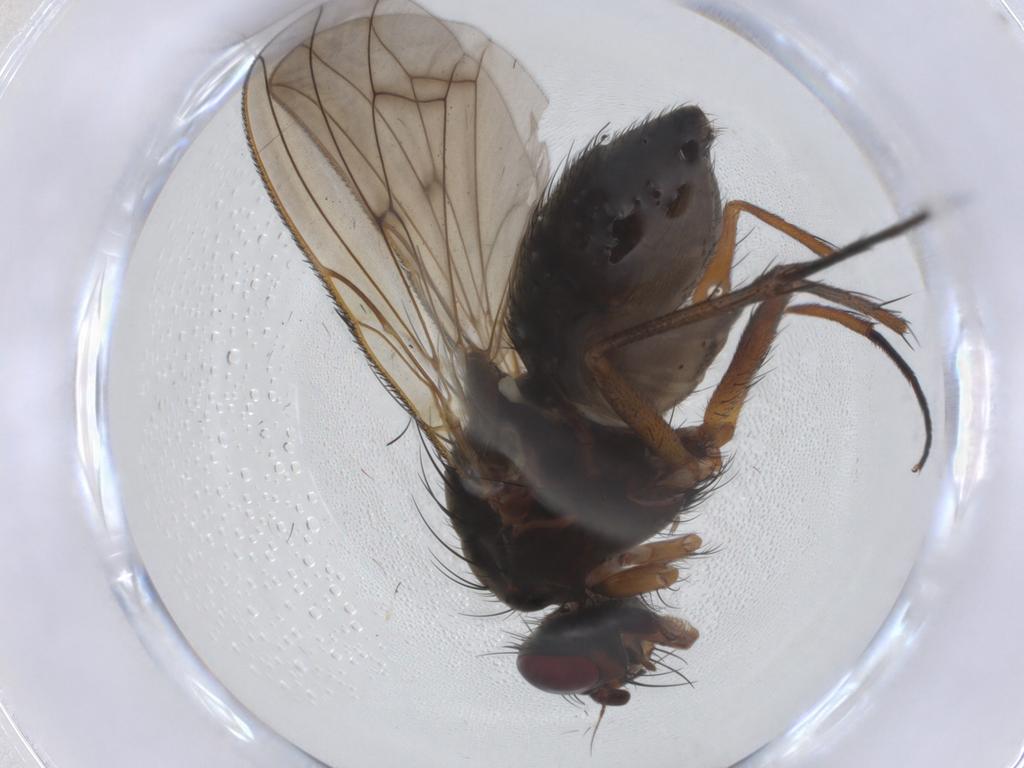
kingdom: Animalia
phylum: Arthropoda
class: Insecta
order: Diptera
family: Anthomyiidae
